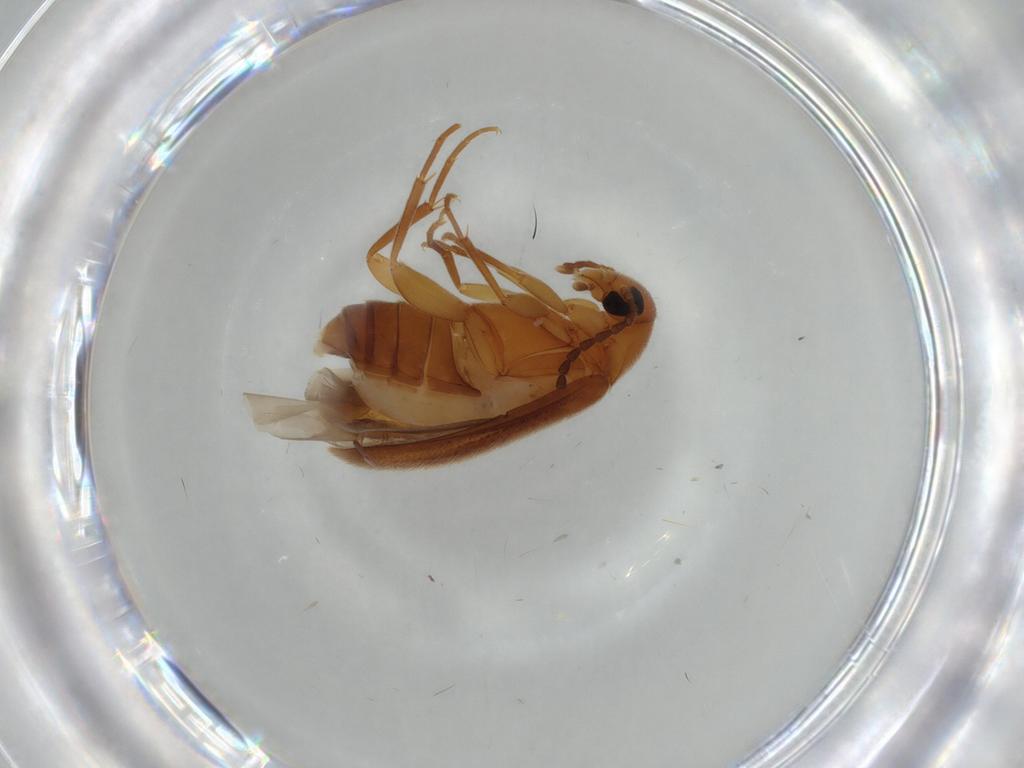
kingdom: Animalia
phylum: Arthropoda
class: Insecta
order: Coleoptera
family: Scraptiidae
